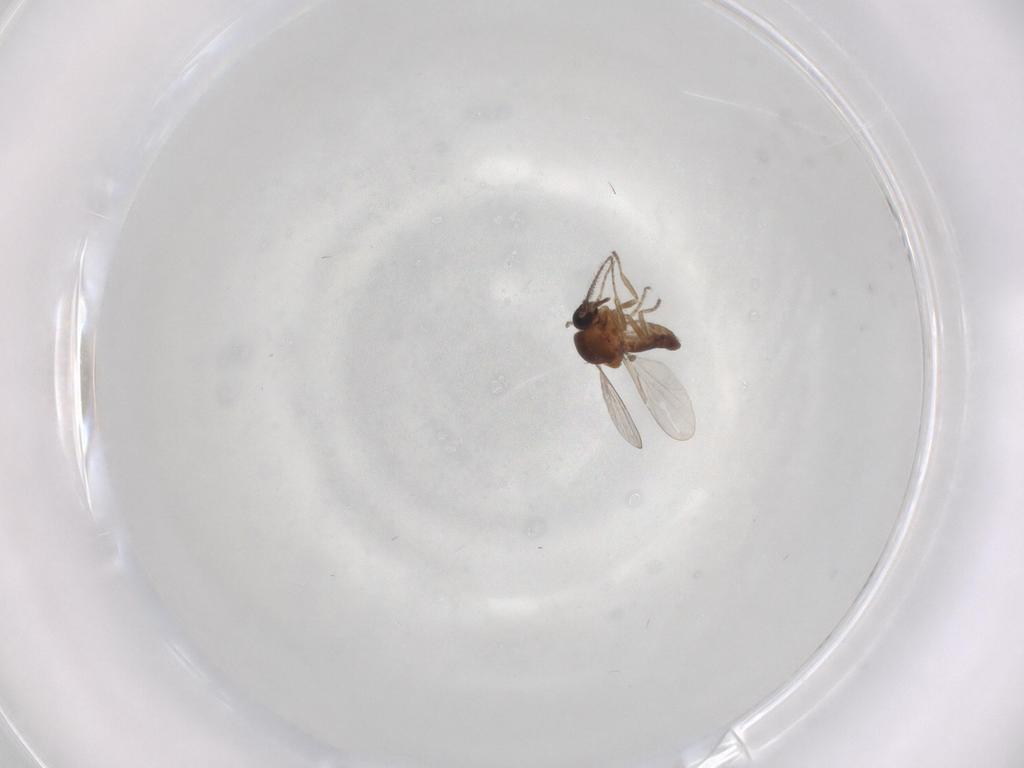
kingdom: Animalia
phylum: Arthropoda
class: Insecta
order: Diptera
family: Ceratopogonidae
